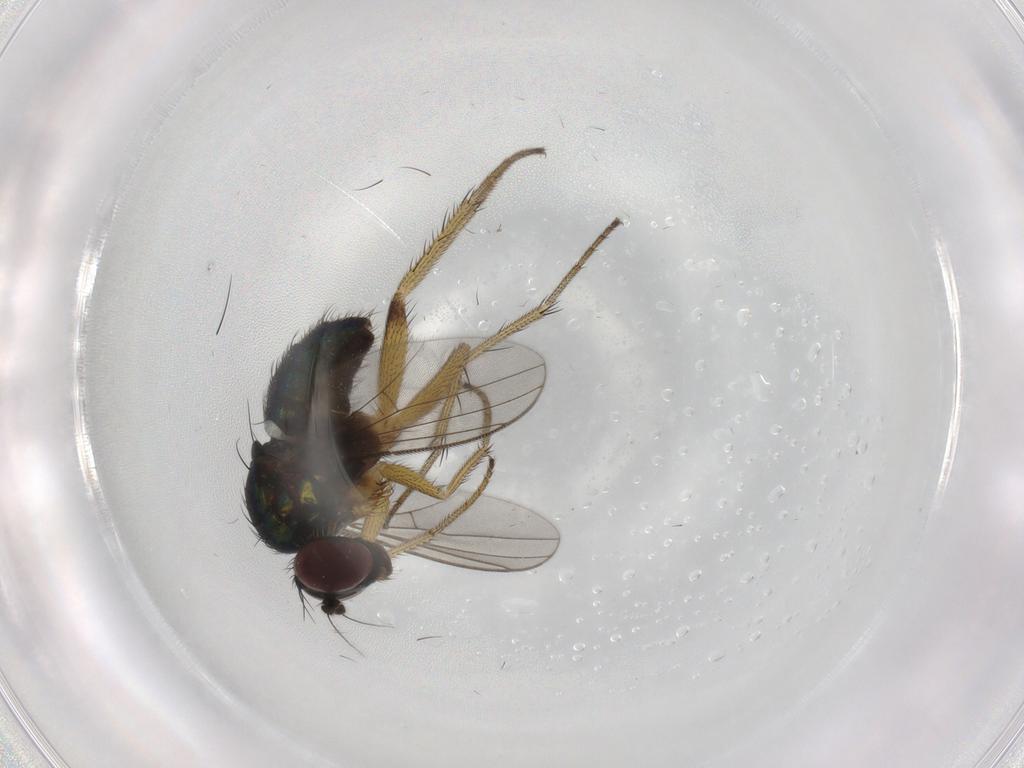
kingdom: Animalia
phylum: Arthropoda
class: Insecta
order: Diptera
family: Dolichopodidae
